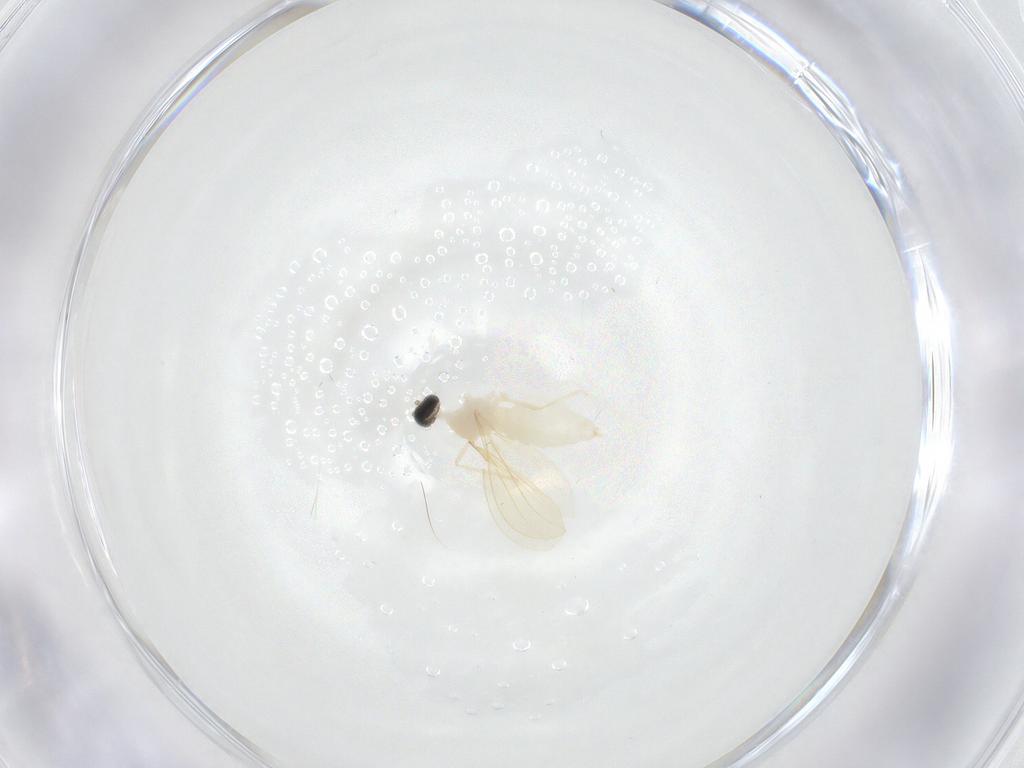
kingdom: Animalia
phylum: Arthropoda
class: Insecta
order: Diptera
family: Cecidomyiidae
